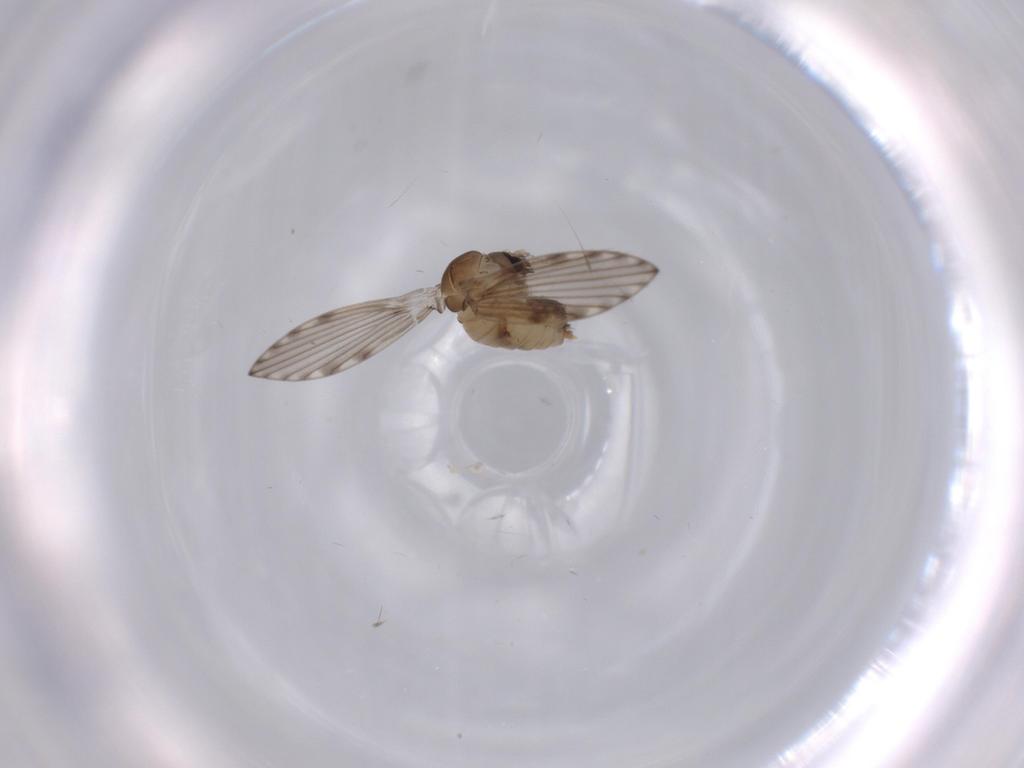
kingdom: Animalia
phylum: Arthropoda
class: Insecta
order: Diptera
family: Psychodidae
